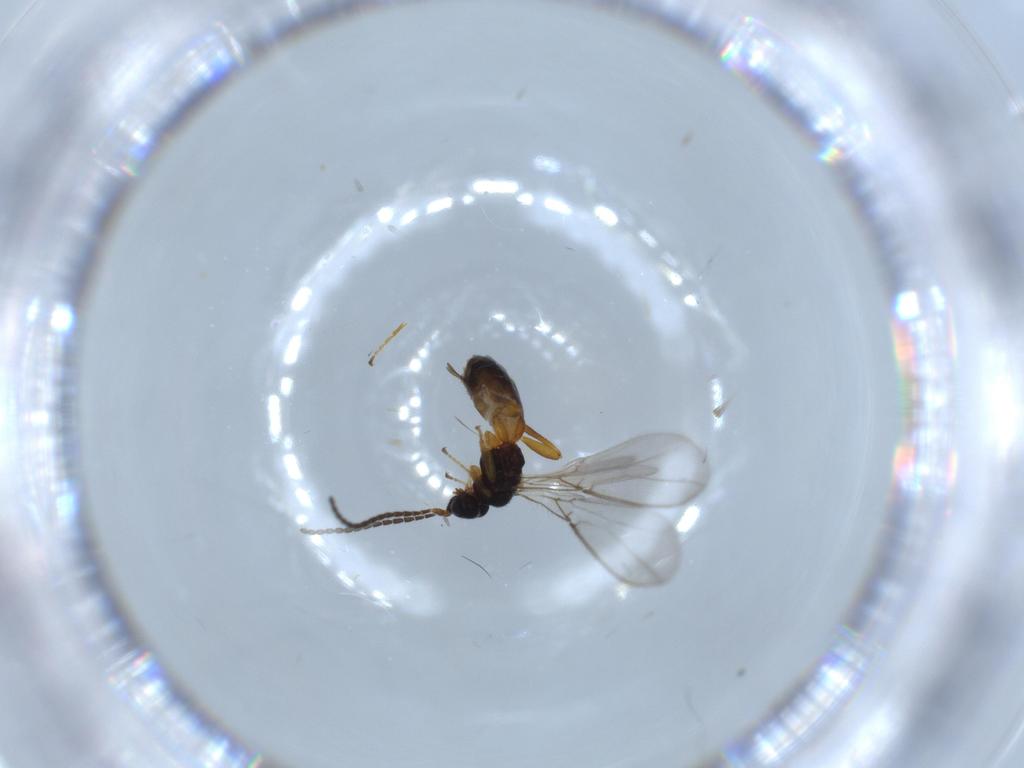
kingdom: Animalia
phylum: Arthropoda
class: Insecta
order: Hymenoptera
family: Braconidae
